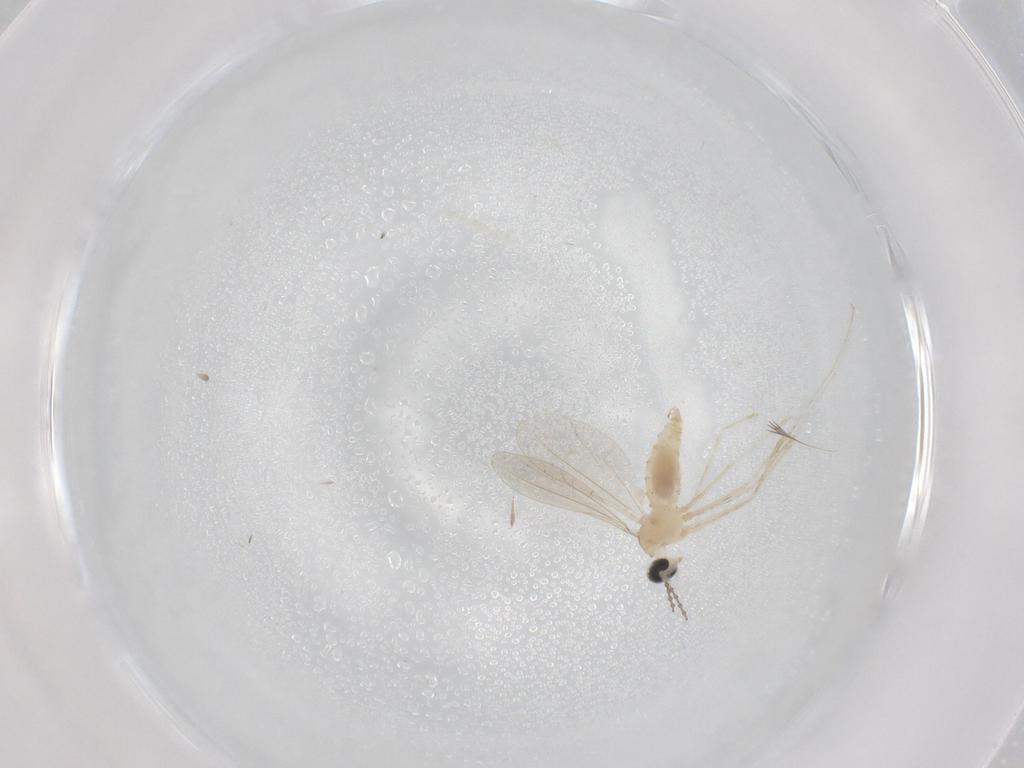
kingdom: Animalia
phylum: Arthropoda
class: Insecta
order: Diptera
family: Cecidomyiidae
